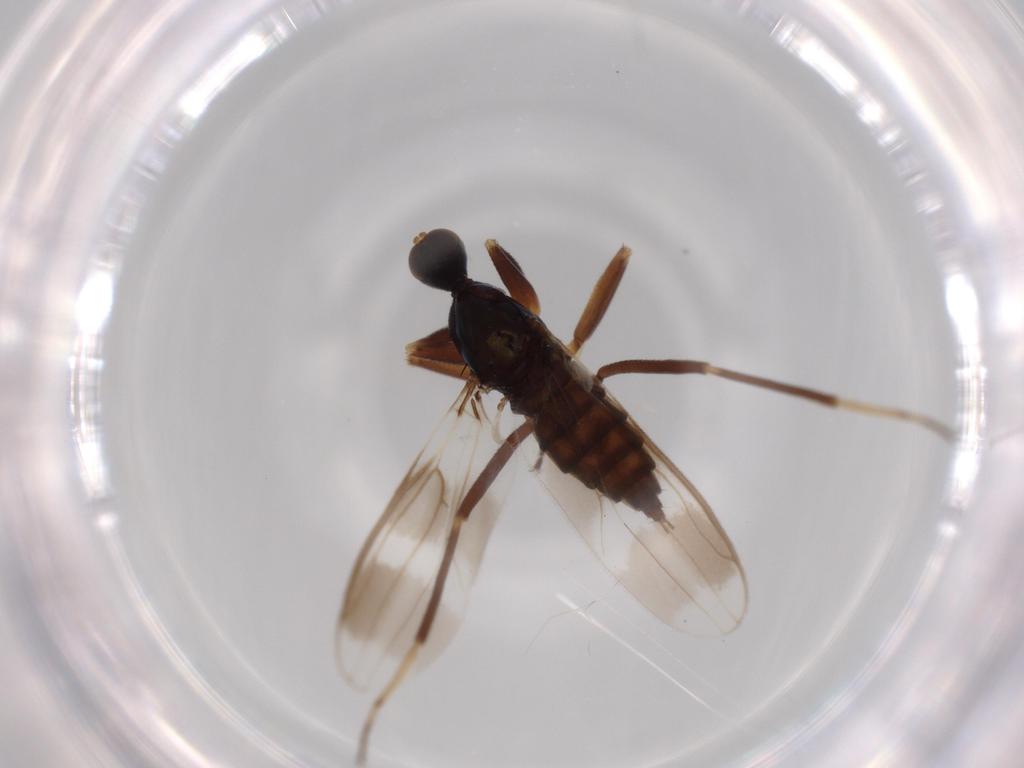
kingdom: Animalia
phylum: Arthropoda
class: Insecta
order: Diptera
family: Hybotidae
